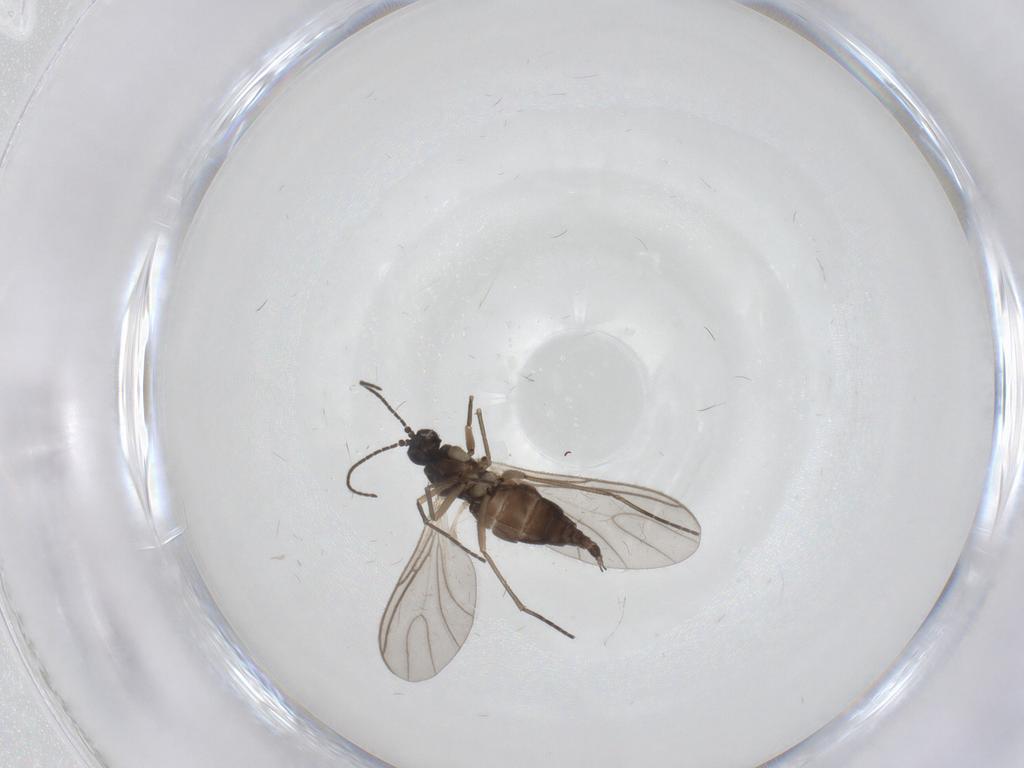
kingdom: Animalia
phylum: Arthropoda
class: Insecta
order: Diptera
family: Sciaridae
